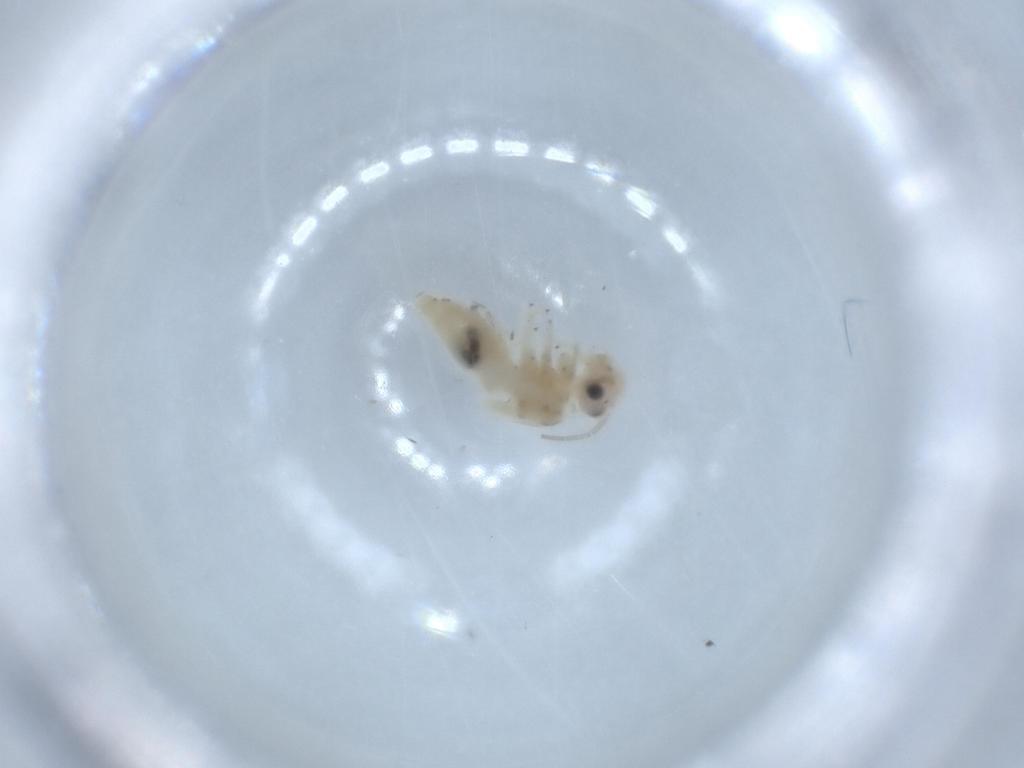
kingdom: Animalia
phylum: Arthropoda
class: Insecta
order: Psocodea
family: Caeciliusidae
